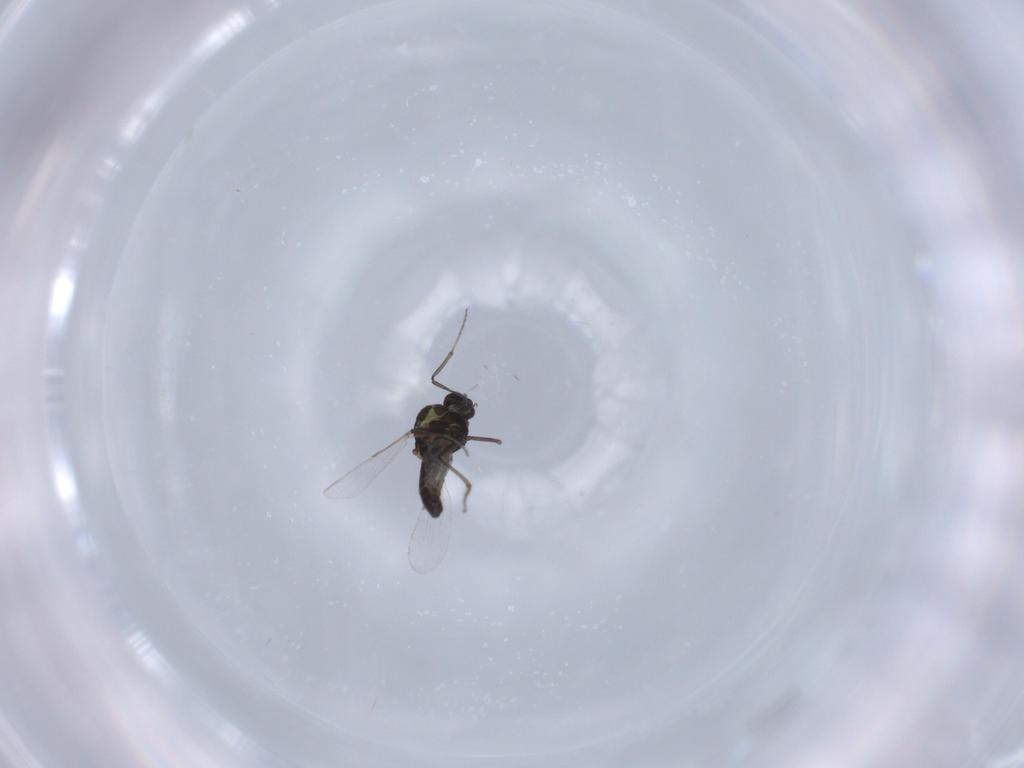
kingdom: Animalia
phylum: Arthropoda
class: Insecta
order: Diptera
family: Ceratopogonidae
